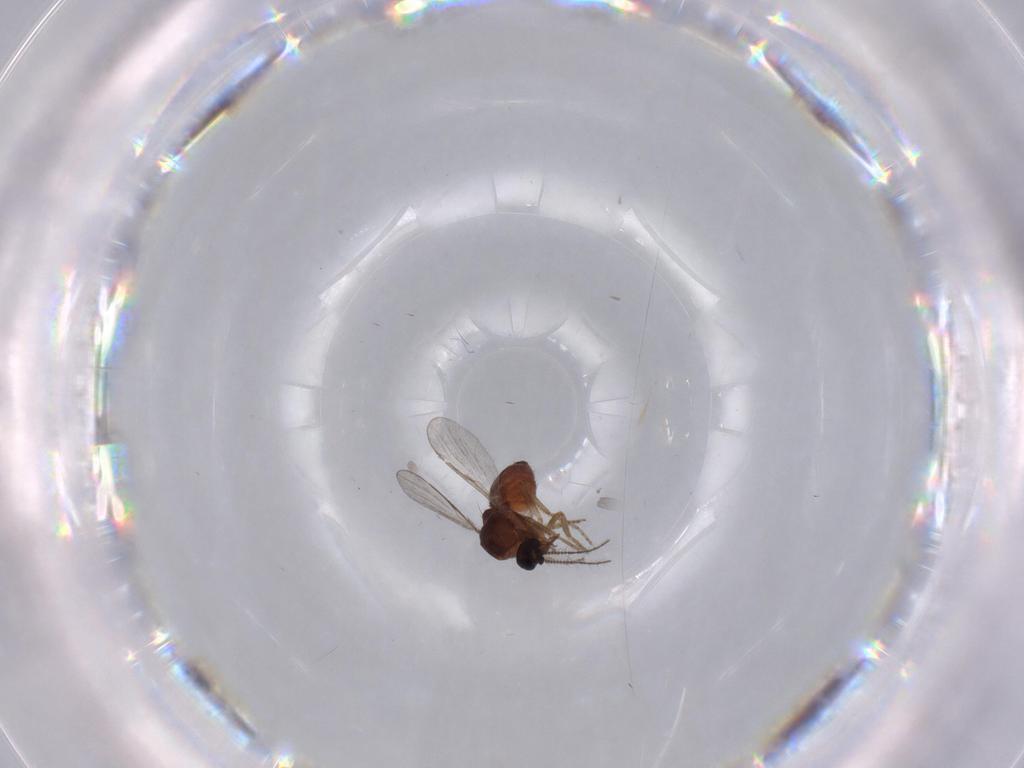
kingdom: Animalia
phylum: Arthropoda
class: Insecta
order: Diptera
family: Ceratopogonidae
